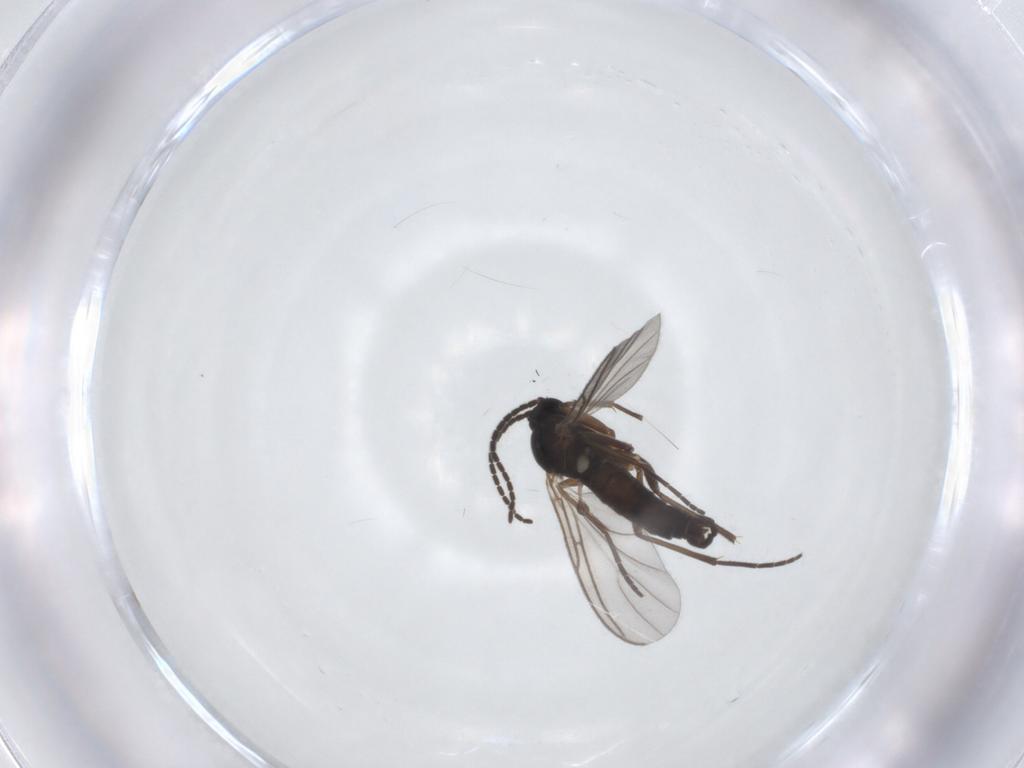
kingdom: Animalia
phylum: Arthropoda
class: Insecta
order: Diptera
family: Sciaridae
